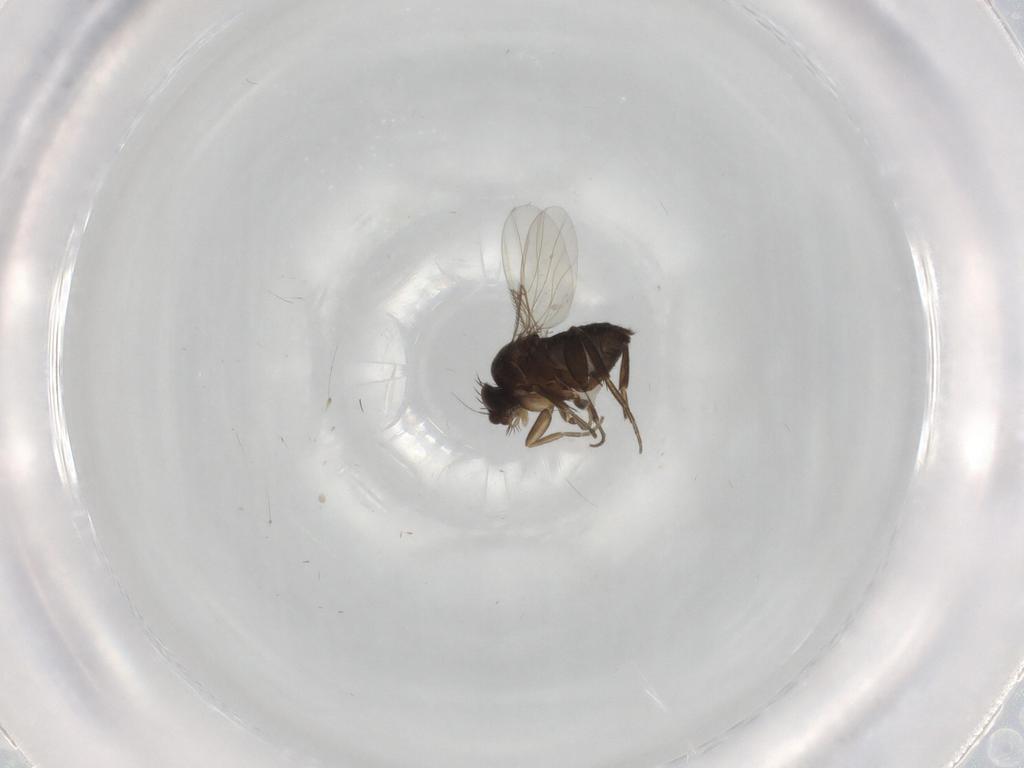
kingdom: Animalia
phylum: Arthropoda
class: Insecta
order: Diptera
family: Phoridae
